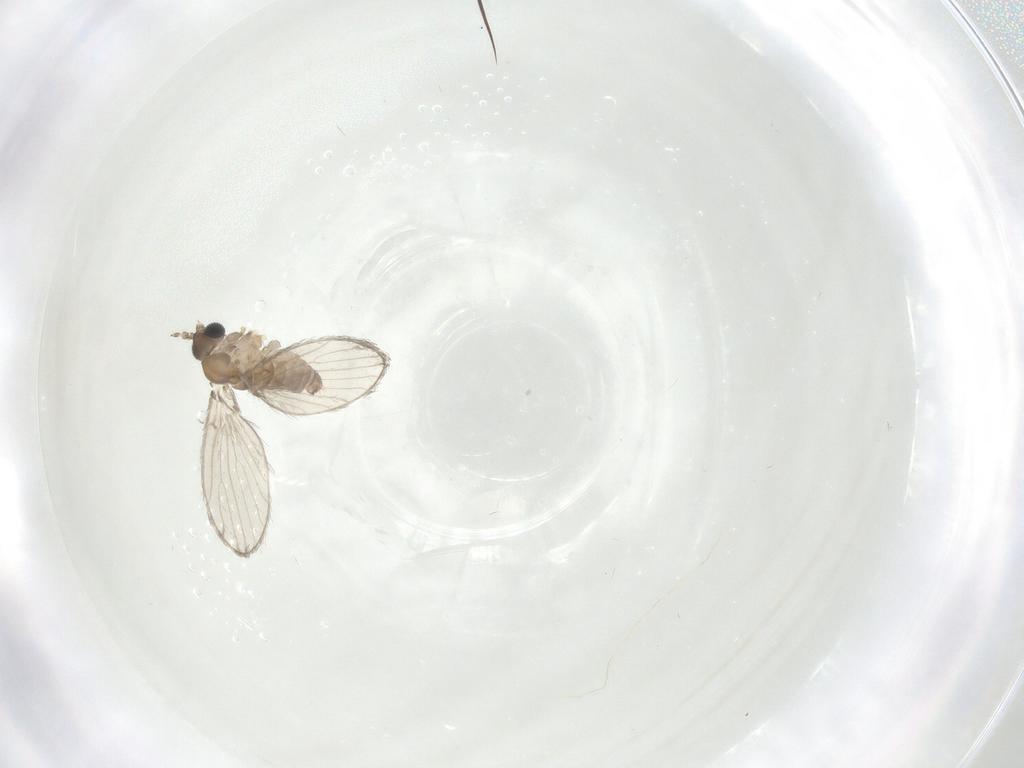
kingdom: Animalia
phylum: Arthropoda
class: Insecta
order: Diptera
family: Psychodidae
